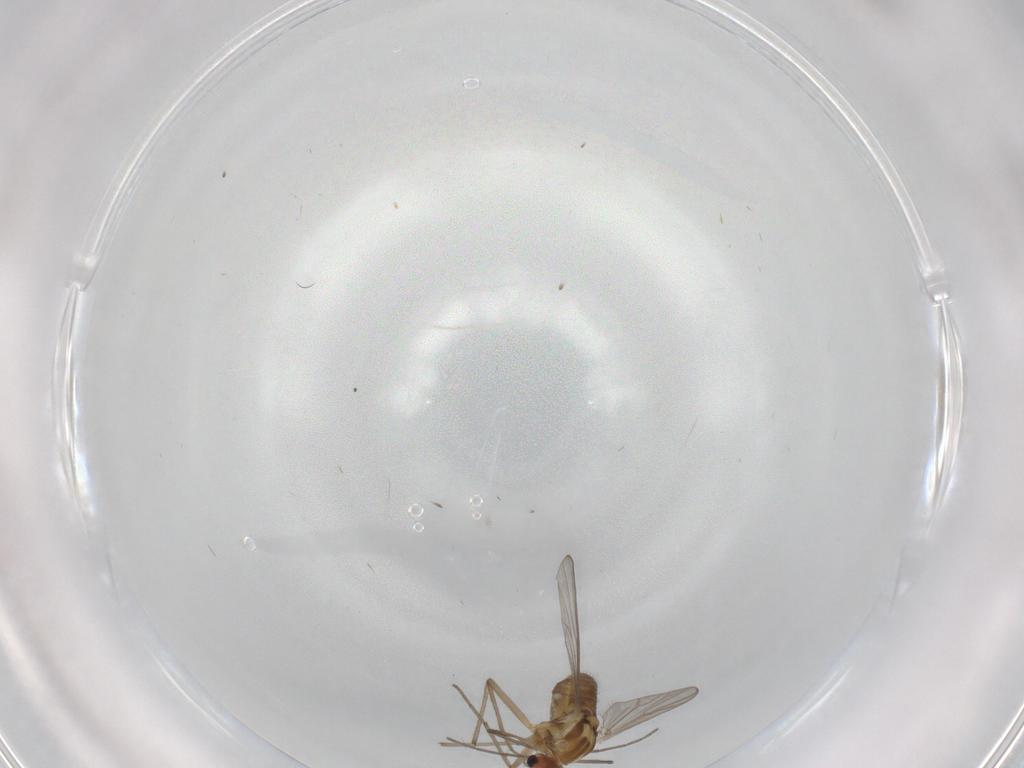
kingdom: Animalia
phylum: Arthropoda
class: Insecta
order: Diptera
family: Chironomidae
